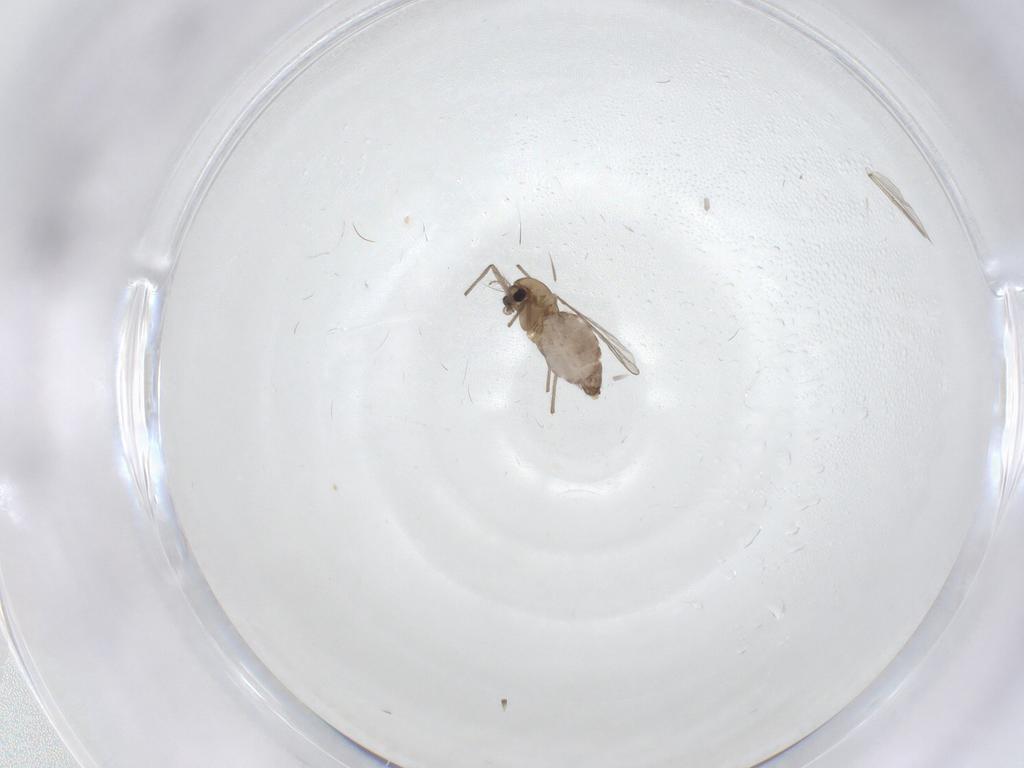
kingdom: Animalia
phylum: Arthropoda
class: Insecta
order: Diptera
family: Chironomidae
